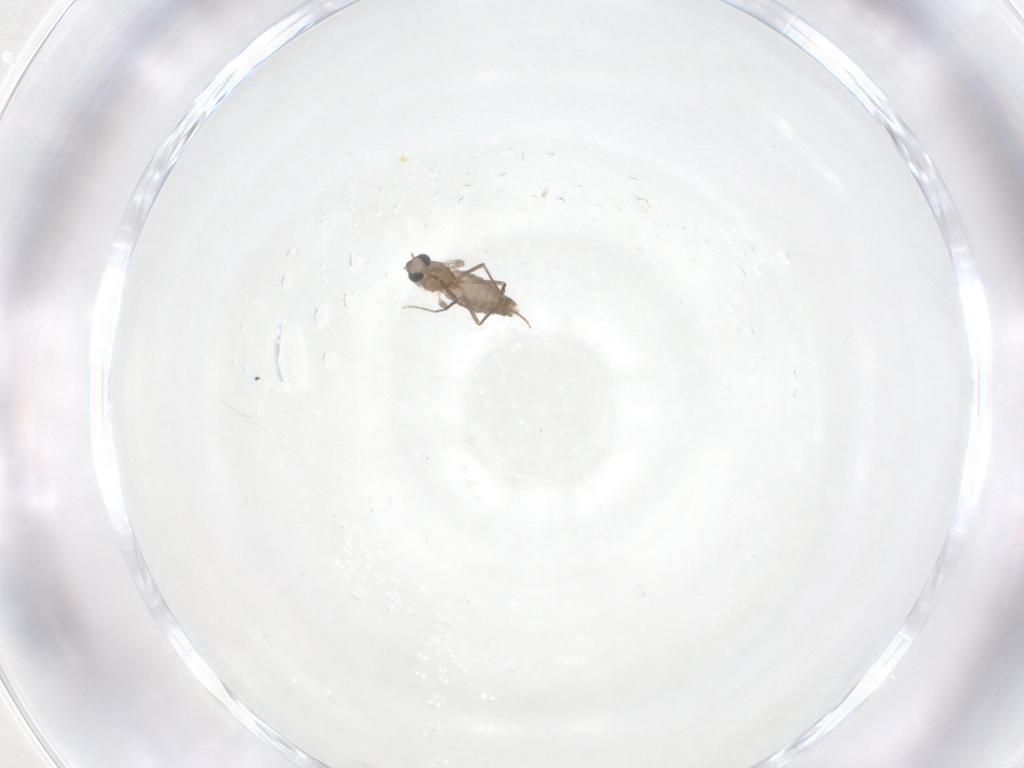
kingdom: Animalia
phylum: Arthropoda
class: Insecta
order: Diptera
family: Chironomidae
